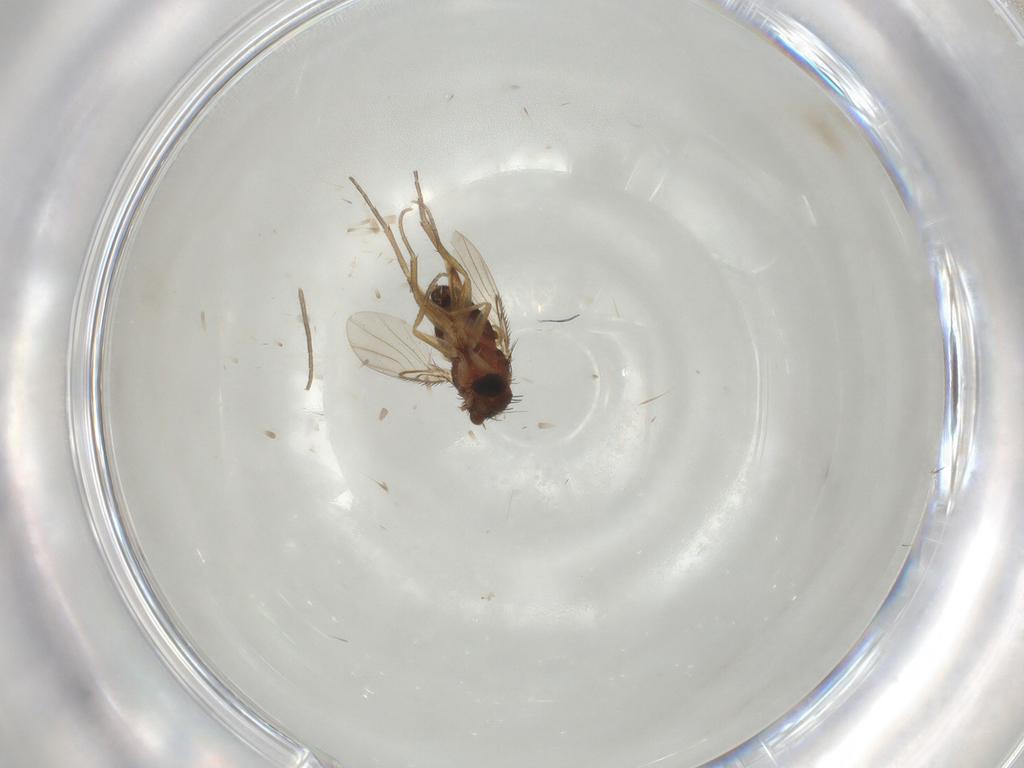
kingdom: Animalia
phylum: Arthropoda
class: Insecta
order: Diptera
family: Phoridae
